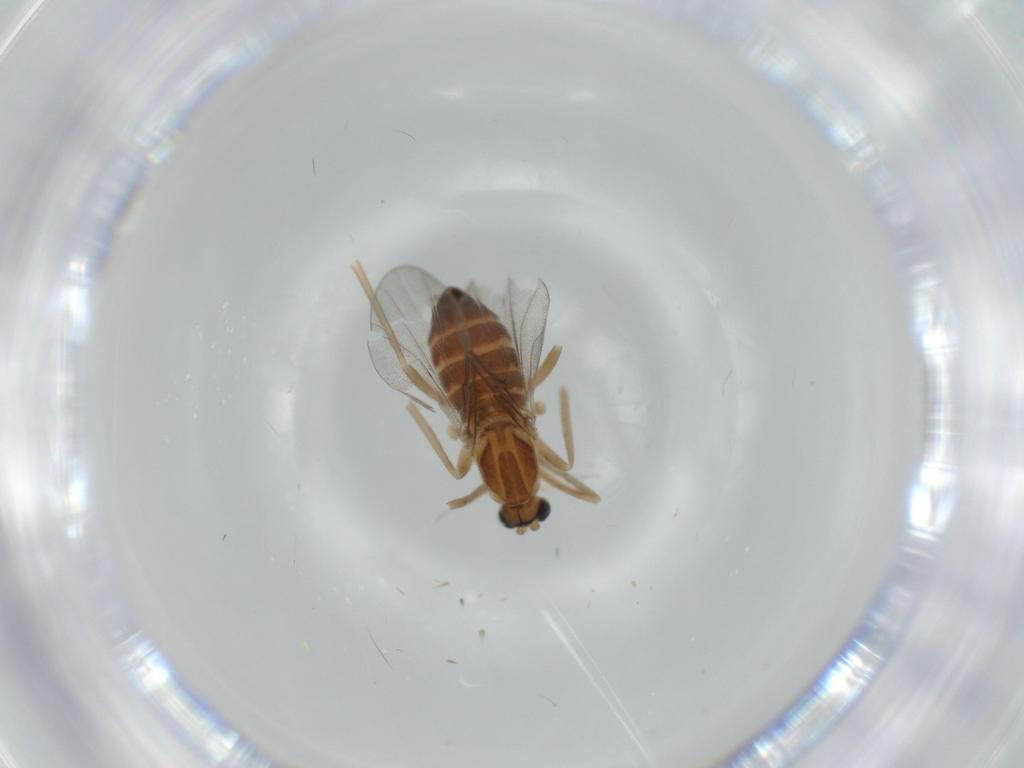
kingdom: Animalia
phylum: Arthropoda
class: Insecta
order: Diptera
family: Cecidomyiidae
